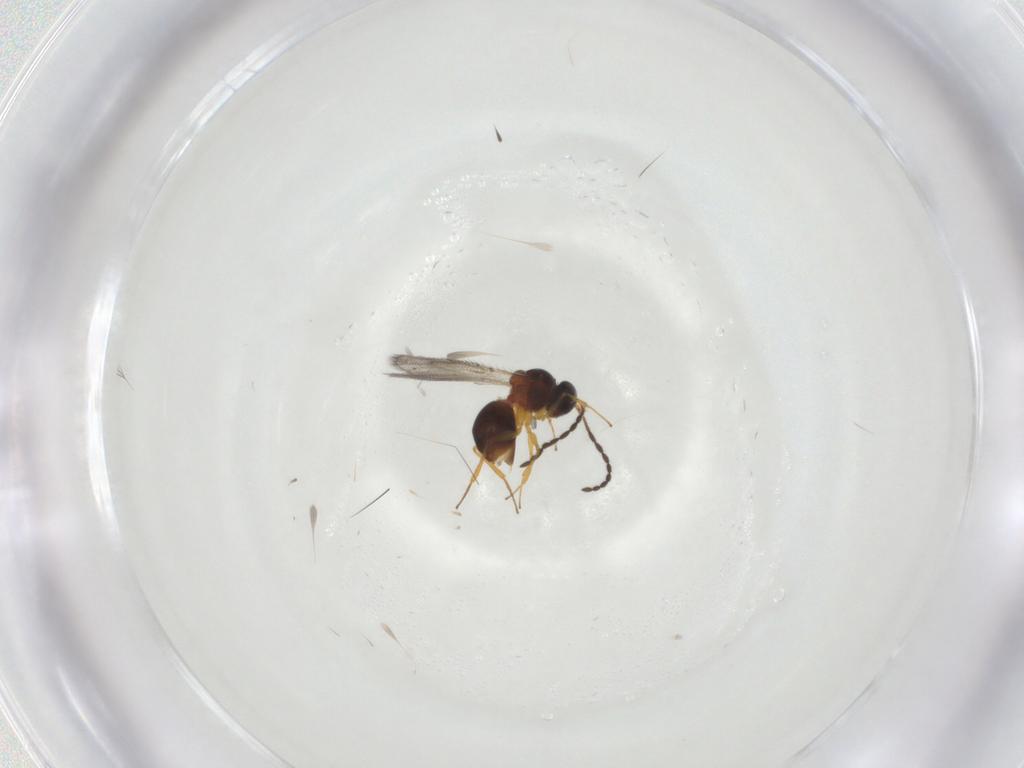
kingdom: Animalia
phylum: Arthropoda
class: Insecta
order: Hymenoptera
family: Figitidae
